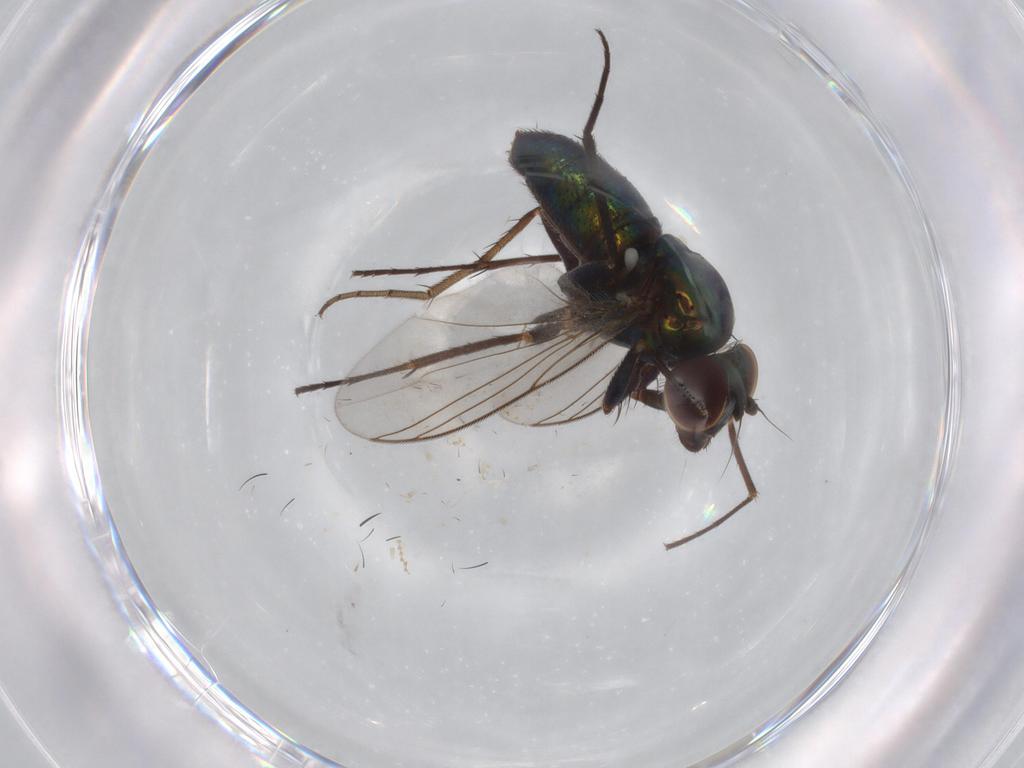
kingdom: Animalia
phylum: Arthropoda
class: Insecta
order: Diptera
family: Dolichopodidae
